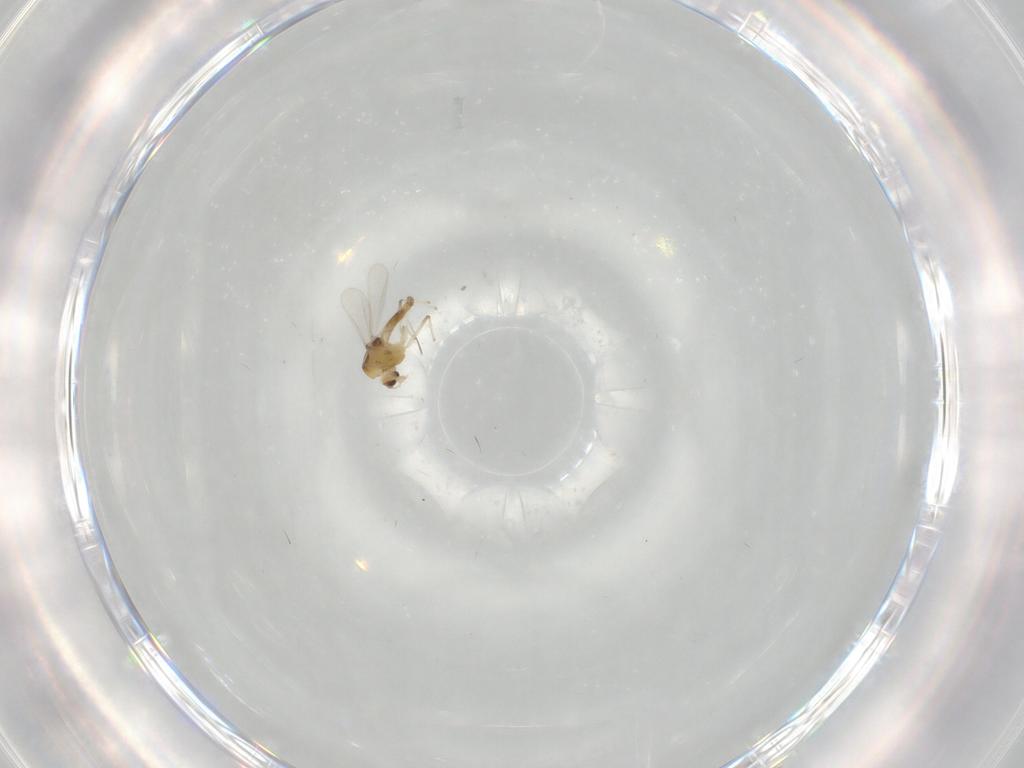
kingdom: Animalia
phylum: Arthropoda
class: Insecta
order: Diptera
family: Chironomidae
